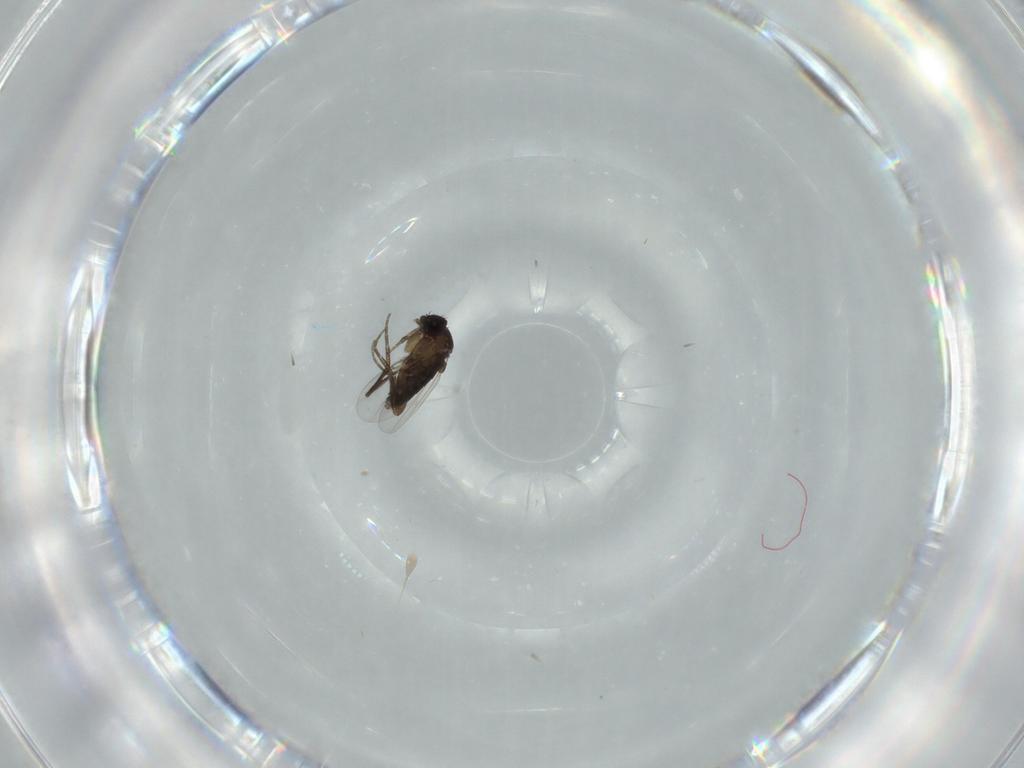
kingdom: Animalia
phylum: Arthropoda
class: Insecta
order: Diptera
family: Phoridae
